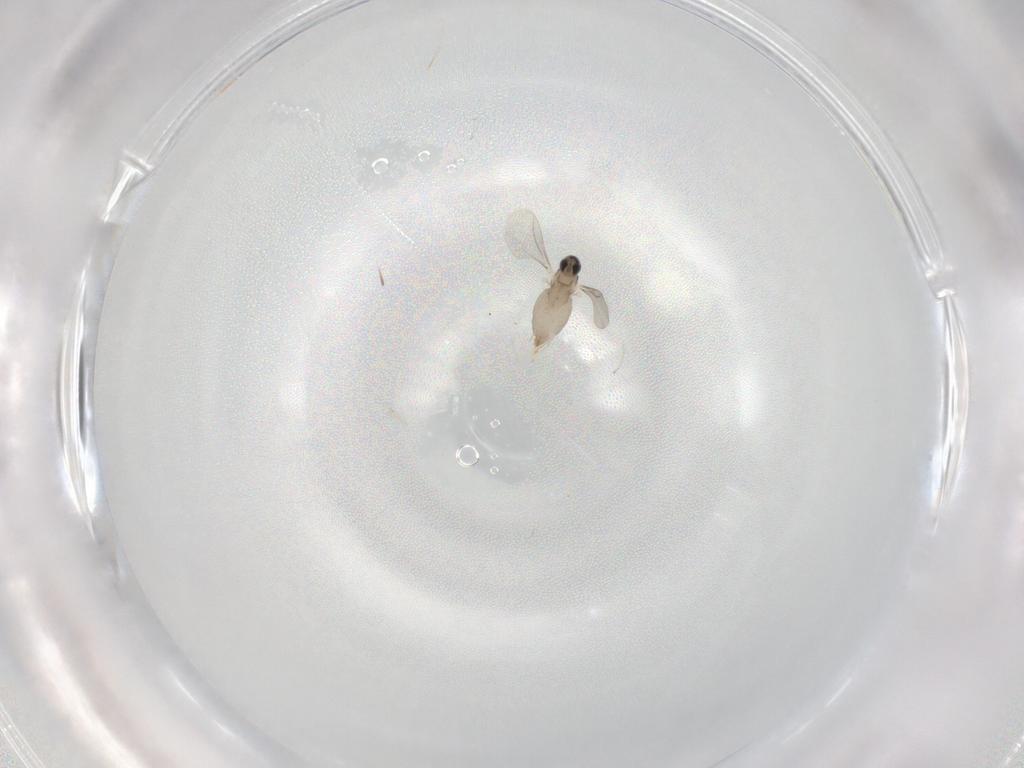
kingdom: Animalia
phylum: Arthropoda
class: Insecta
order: Diptera
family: Cecidomyiidae
